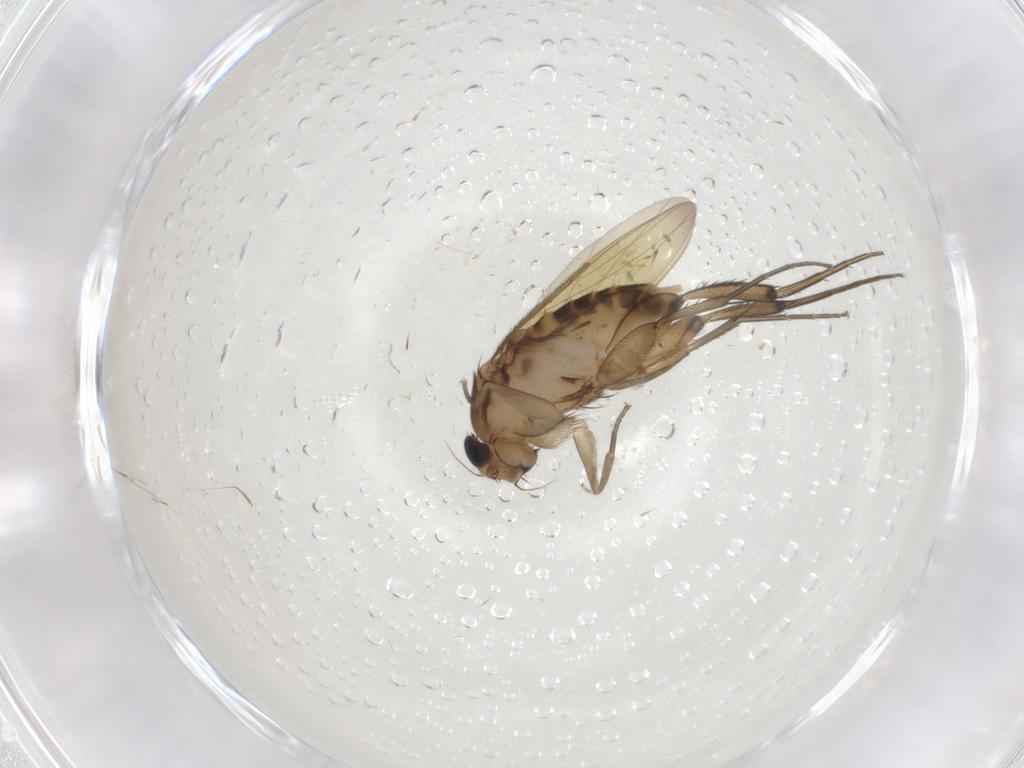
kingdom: Animalia
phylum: Arthropoda
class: Insecta
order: Diptera
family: Phoridae
